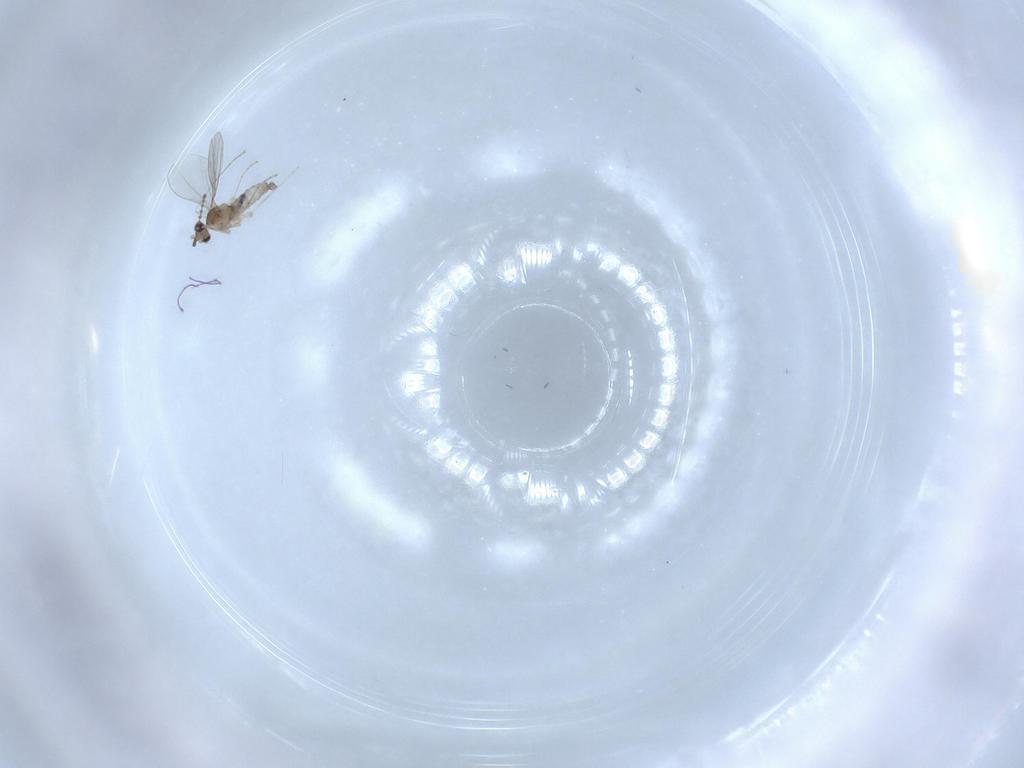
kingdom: Animalia
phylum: Arthropoda
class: Insecta
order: Diptera
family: Cecidomyiidae
